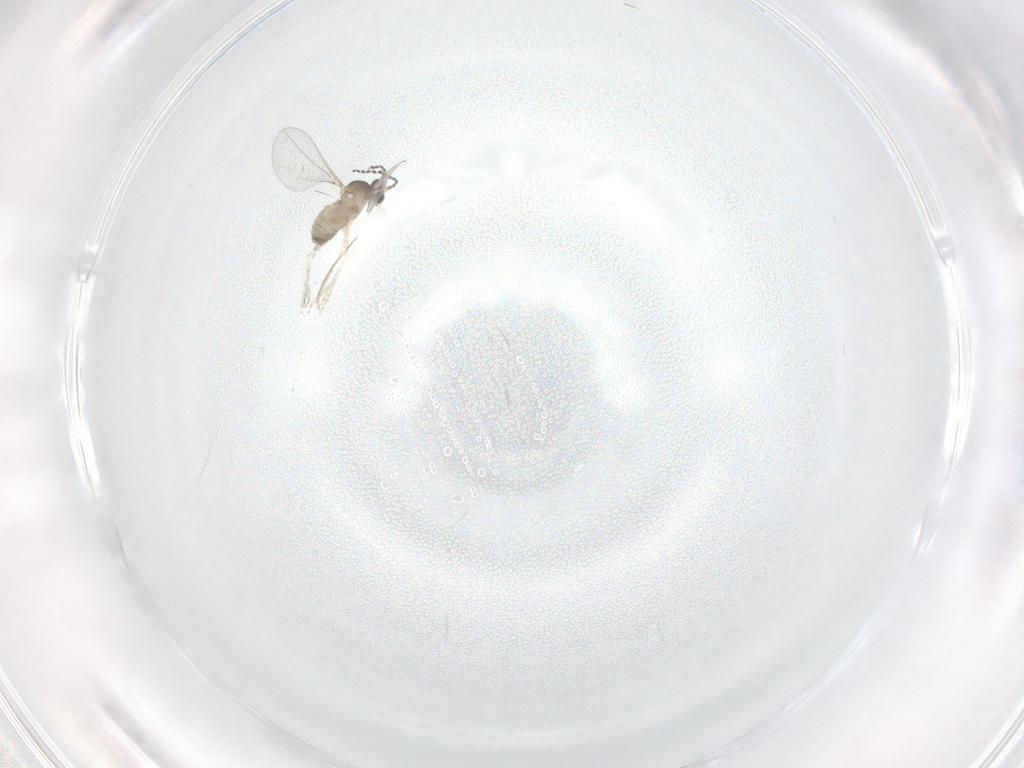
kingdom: Animalia
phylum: Arthropoda
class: Insecta
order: Diptera
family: Cecidomyiidae
